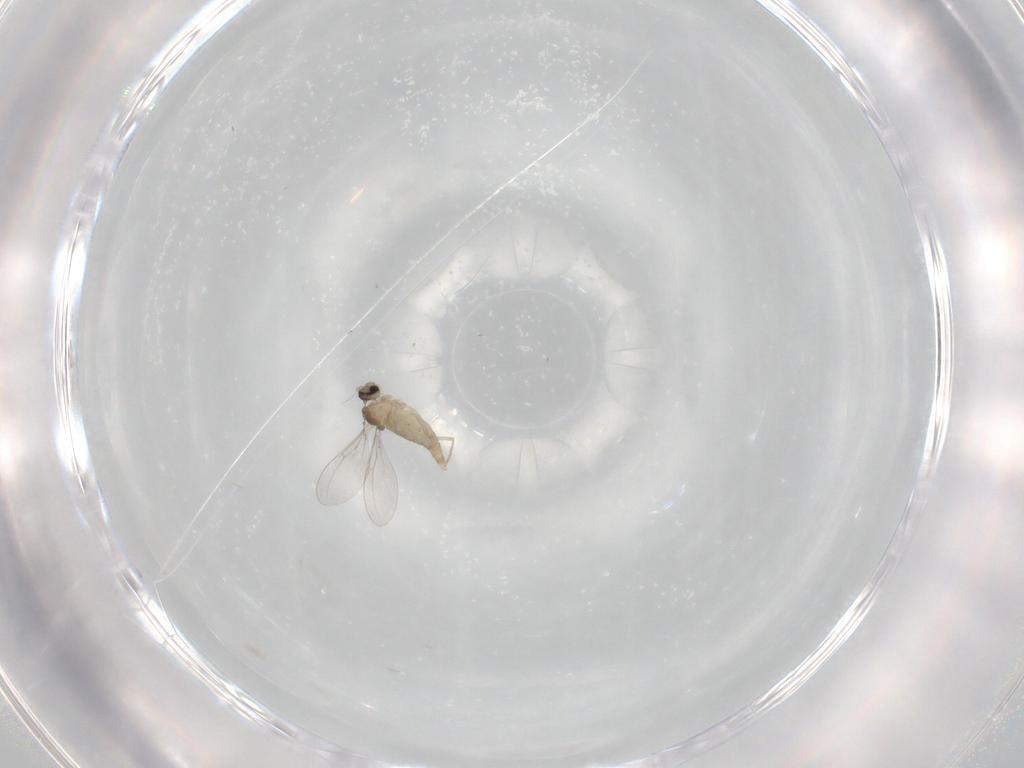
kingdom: Animalia
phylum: Arthropoda
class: Insecta
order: Diptera
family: Cecidomyiidae
